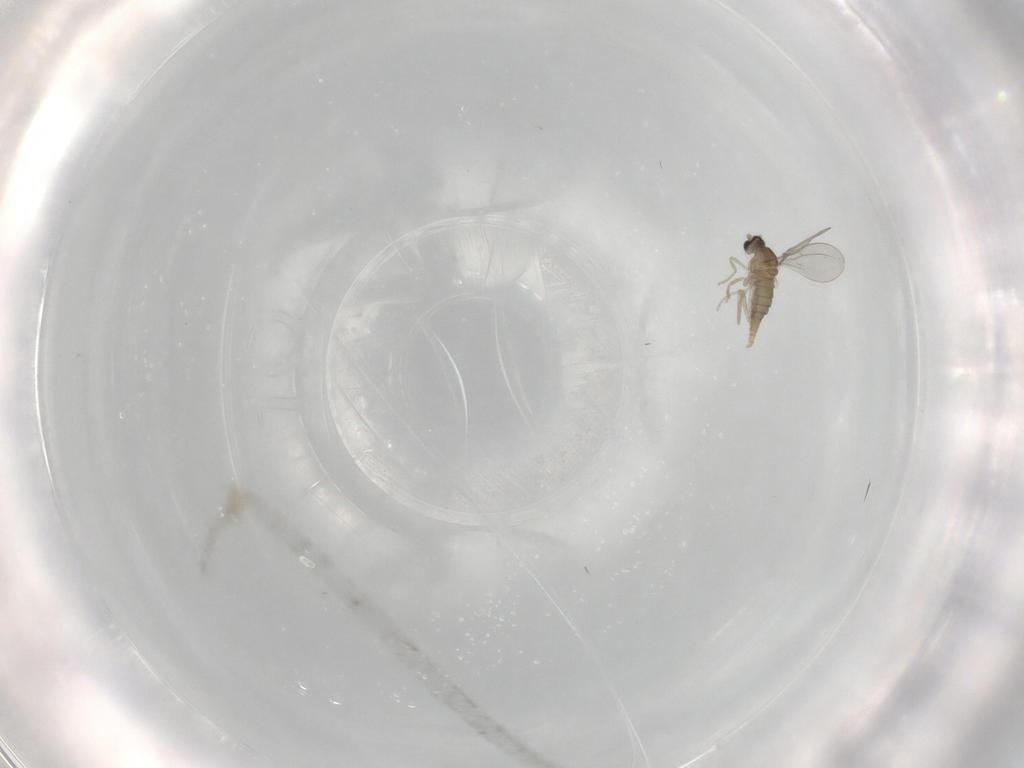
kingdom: Animalia
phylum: Arthropoda
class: Insecta
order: Diptera
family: Cecidomyiidae
